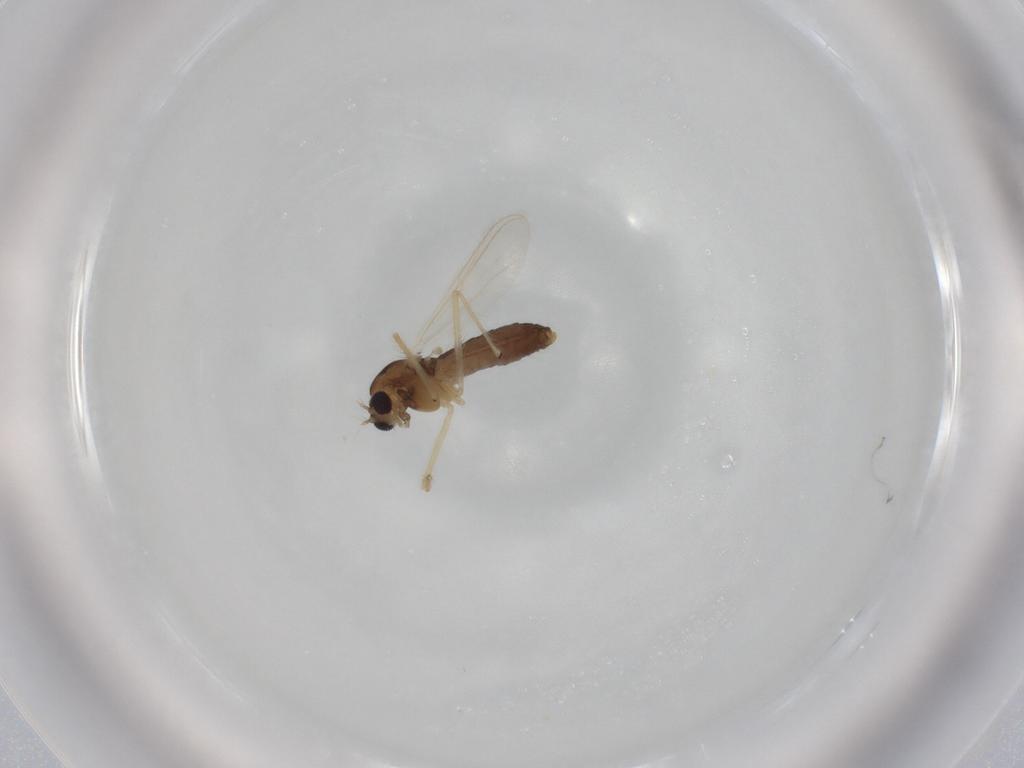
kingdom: Animalia
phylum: Arthropoda
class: Insecta
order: Diptera
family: Chironomidae
